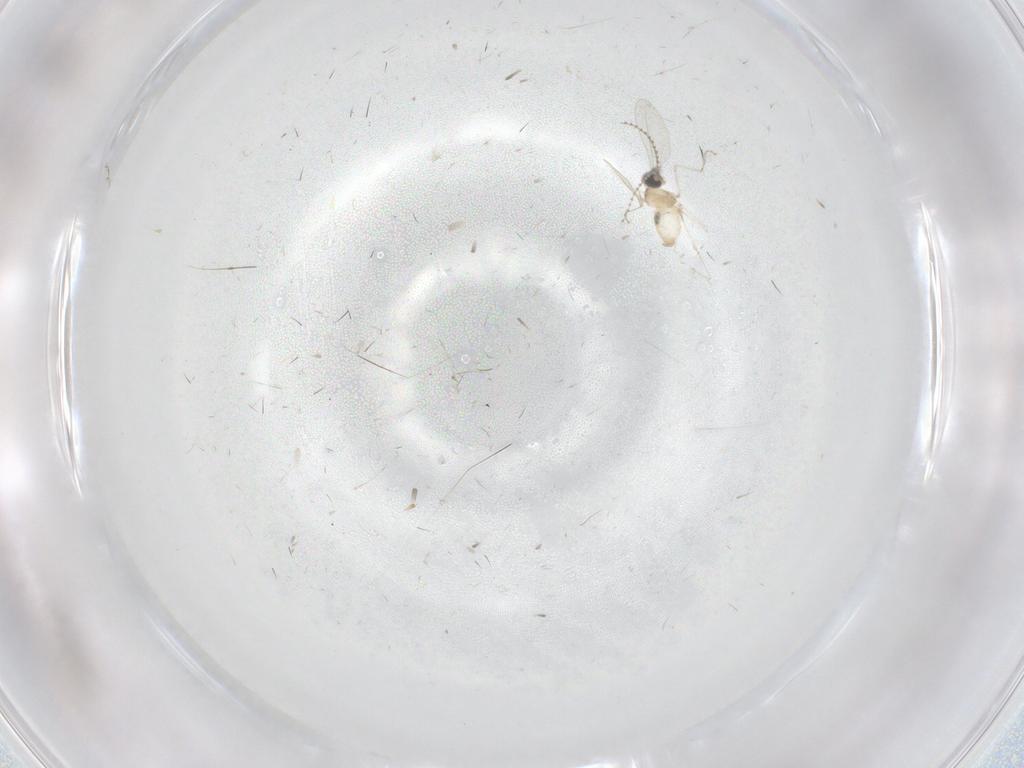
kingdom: Animalia
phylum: Arthropoda
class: Insecta
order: Diptera
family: Cecidomyiidae
